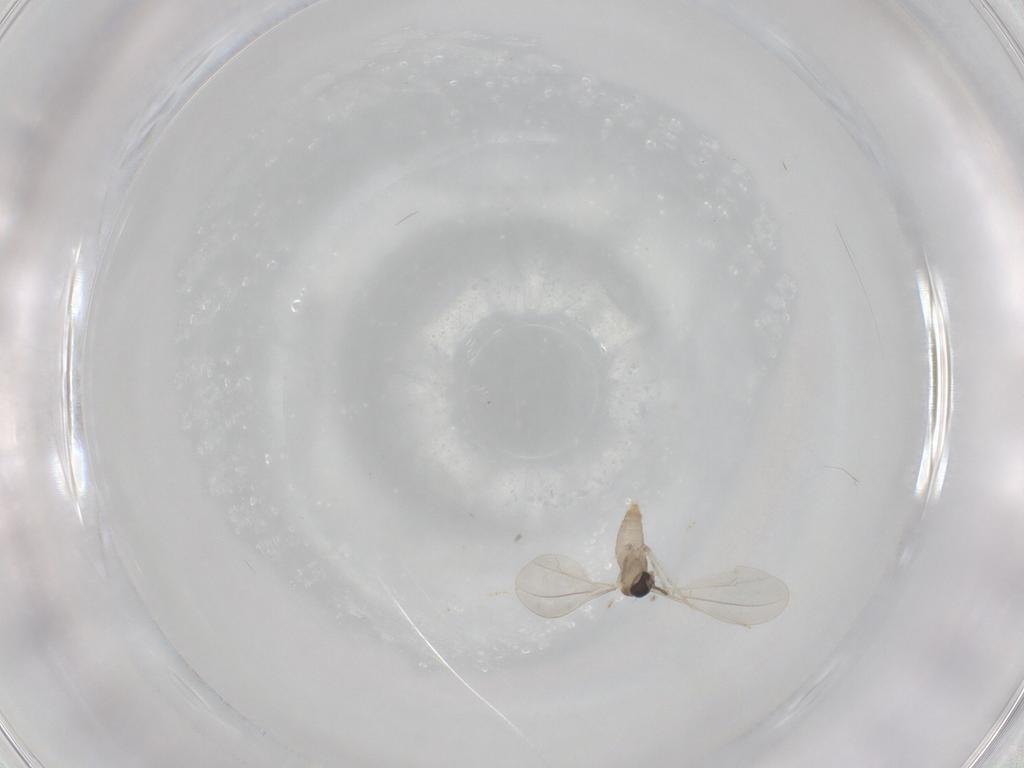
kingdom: Animalia
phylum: Arthropoda
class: Insecta
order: Diptera
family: Cecidomyiidae
